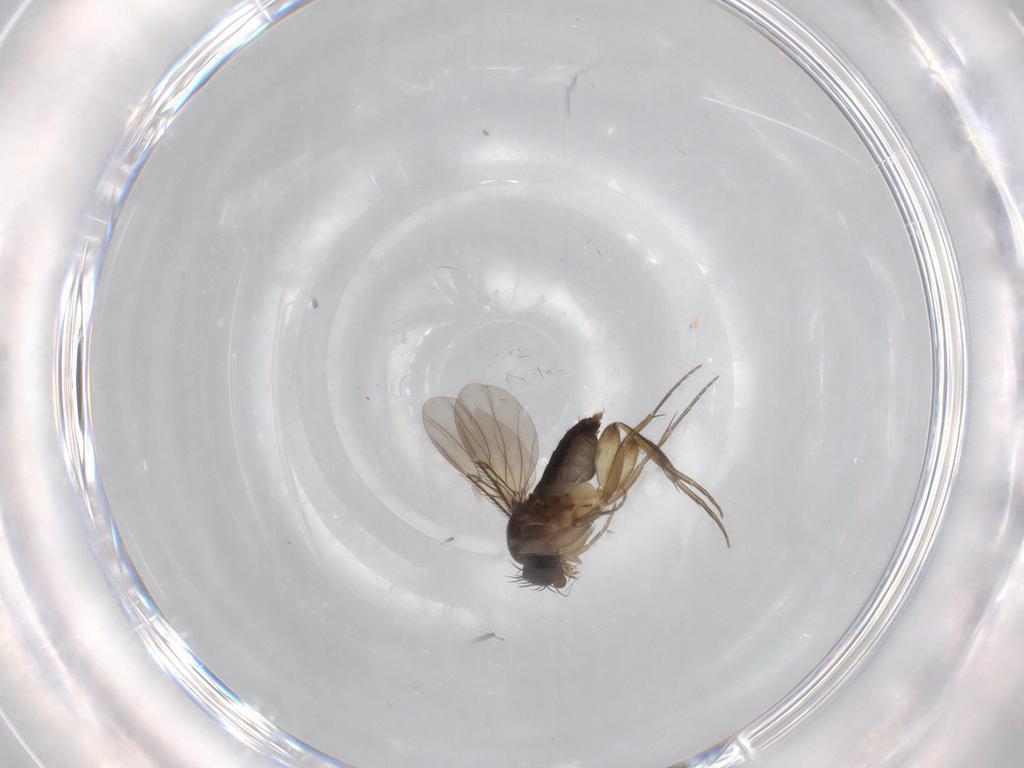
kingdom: Animalia
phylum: Arthropoda
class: Insecta
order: Diptera
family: Phoridae
